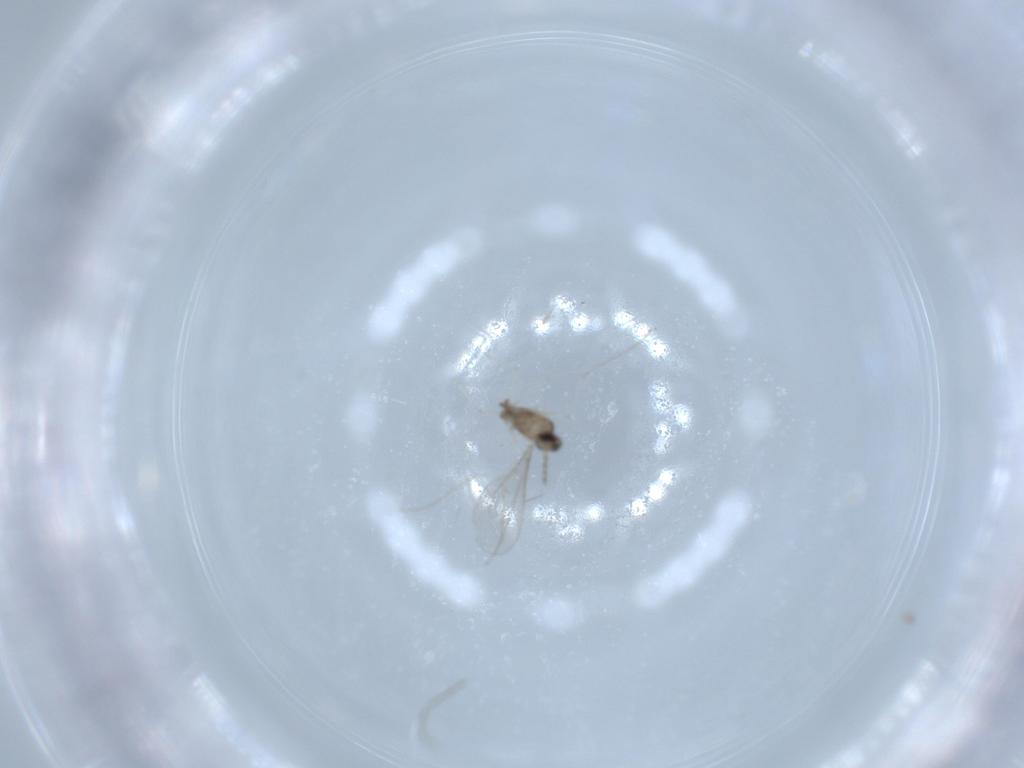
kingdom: Animalia
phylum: Arthropoda
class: Insecta
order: Diptera
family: Cecidomyiidae
